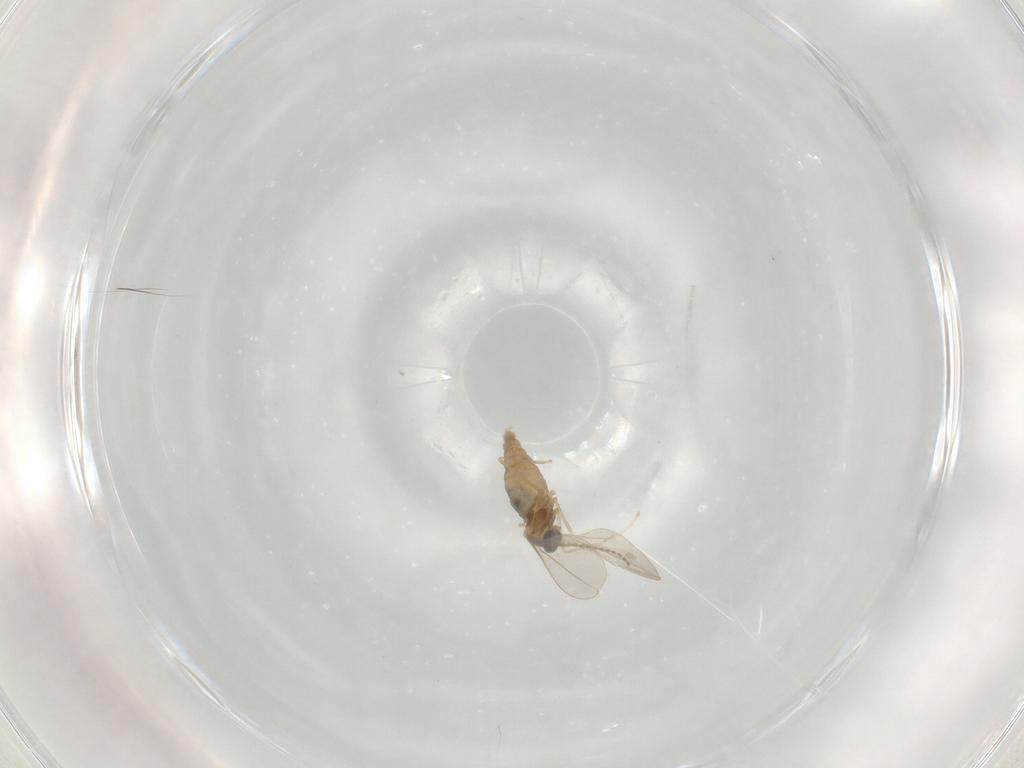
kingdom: Animalia
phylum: Arthropoda
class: Insecta
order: Diptera
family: Cecidomyiidae
